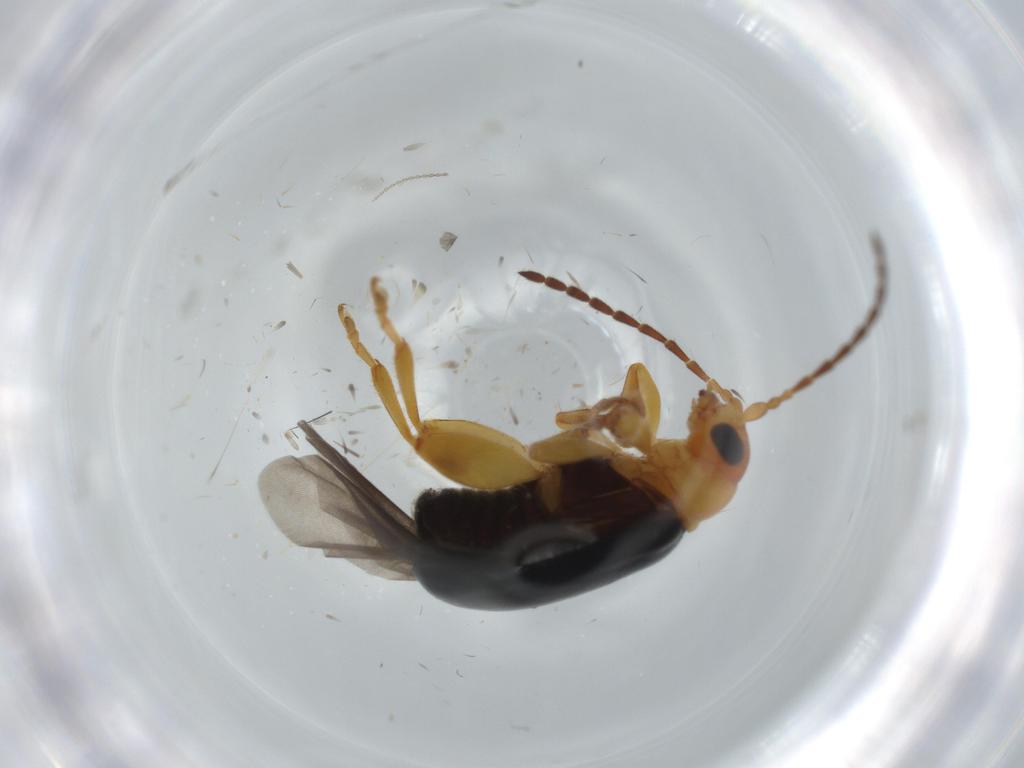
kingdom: Animalia
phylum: Arthropoda
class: Insecta
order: Coleoptera
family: Chrysomelidae
